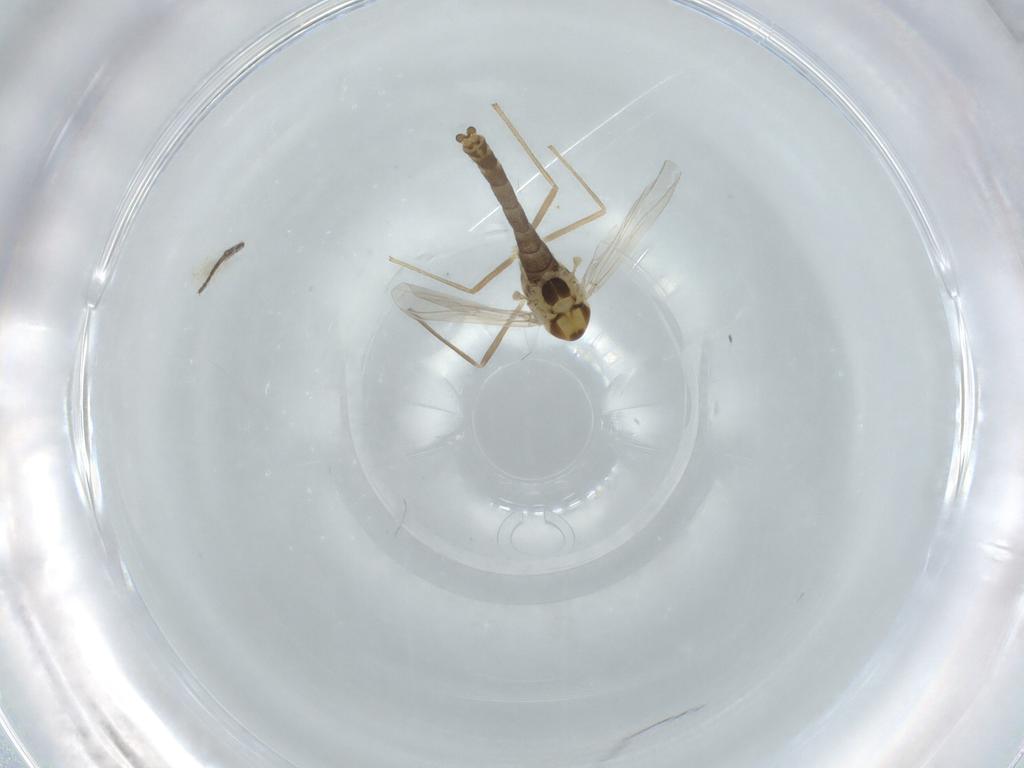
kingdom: Animalia
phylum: Arthropoda
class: Insecta
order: Diptera
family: Chironomidae
